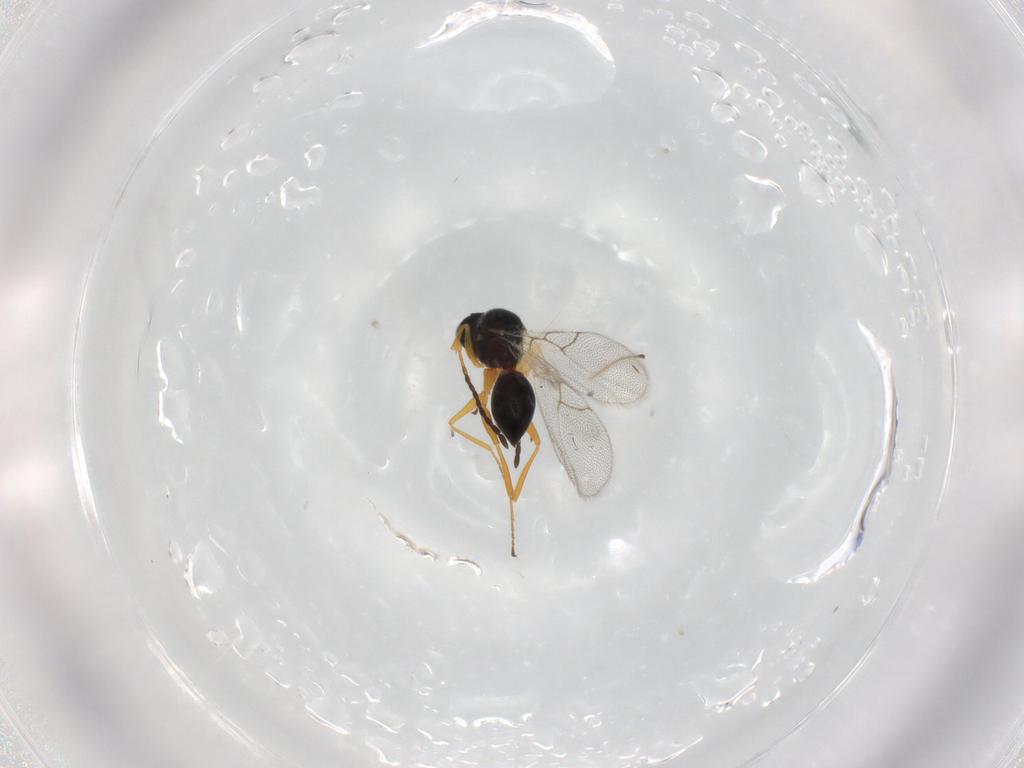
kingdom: Animalia
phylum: Arthropoda
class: Insecta
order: Hymenoptera
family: Figitidae
